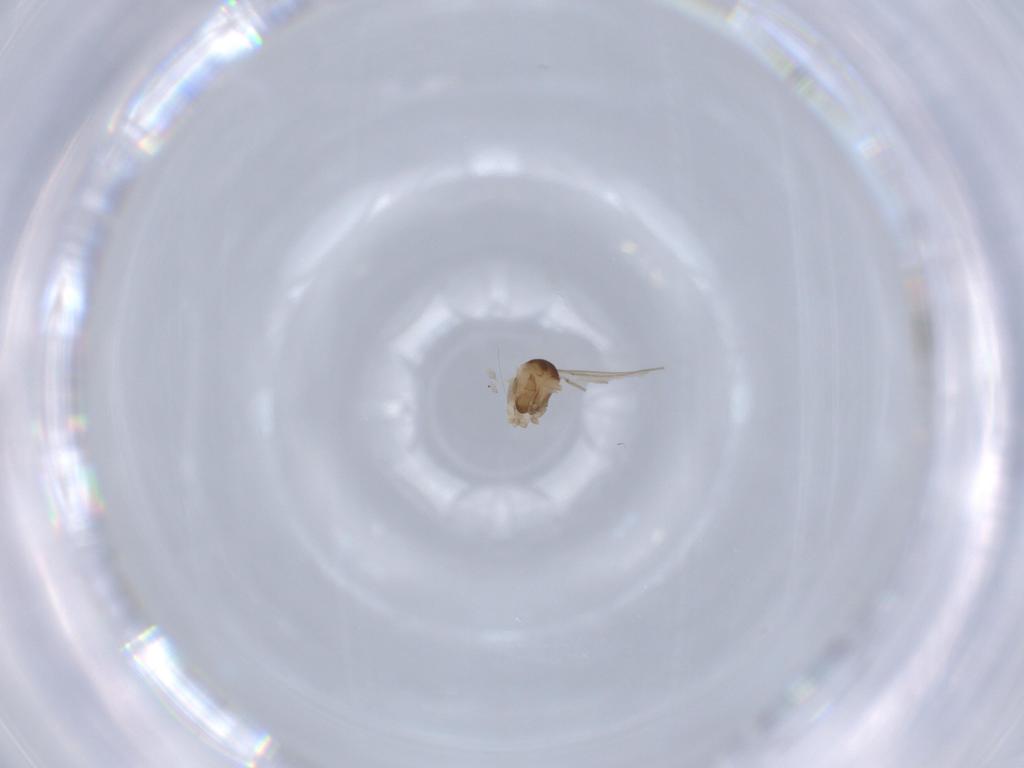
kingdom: Animalia
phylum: Arthropoda
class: Insecta
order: Diptera
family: Cecidomyiidae
